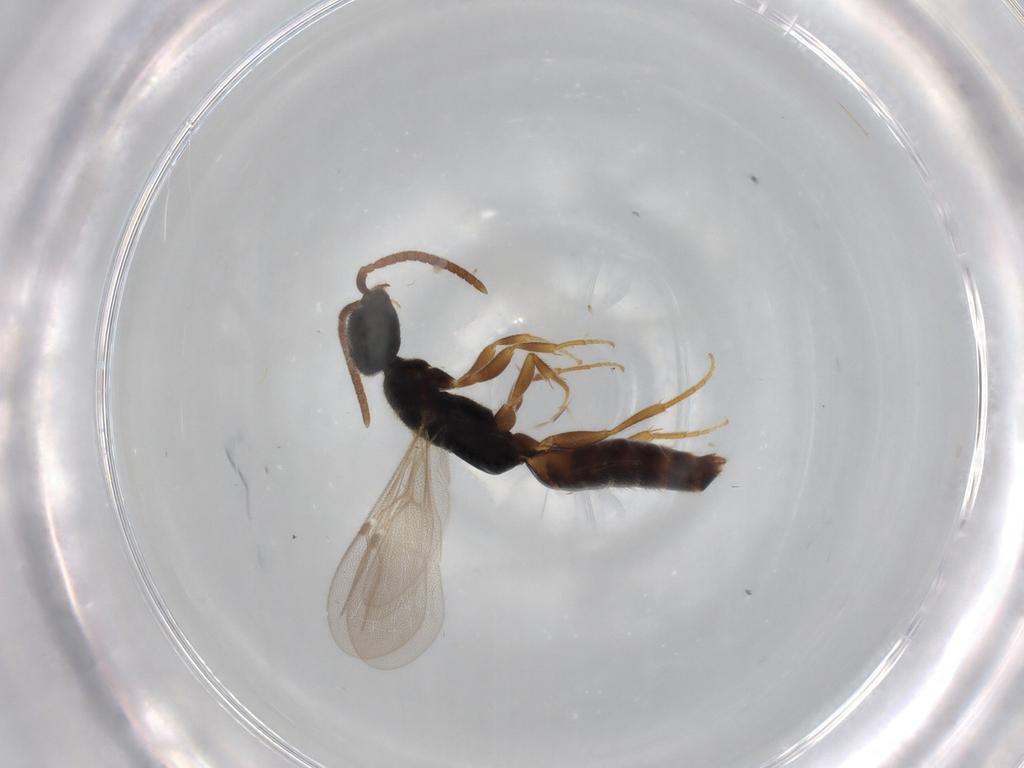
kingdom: Animalia
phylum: Arthropoda
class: Insecta
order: Hymenoptera
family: Bethylidae
